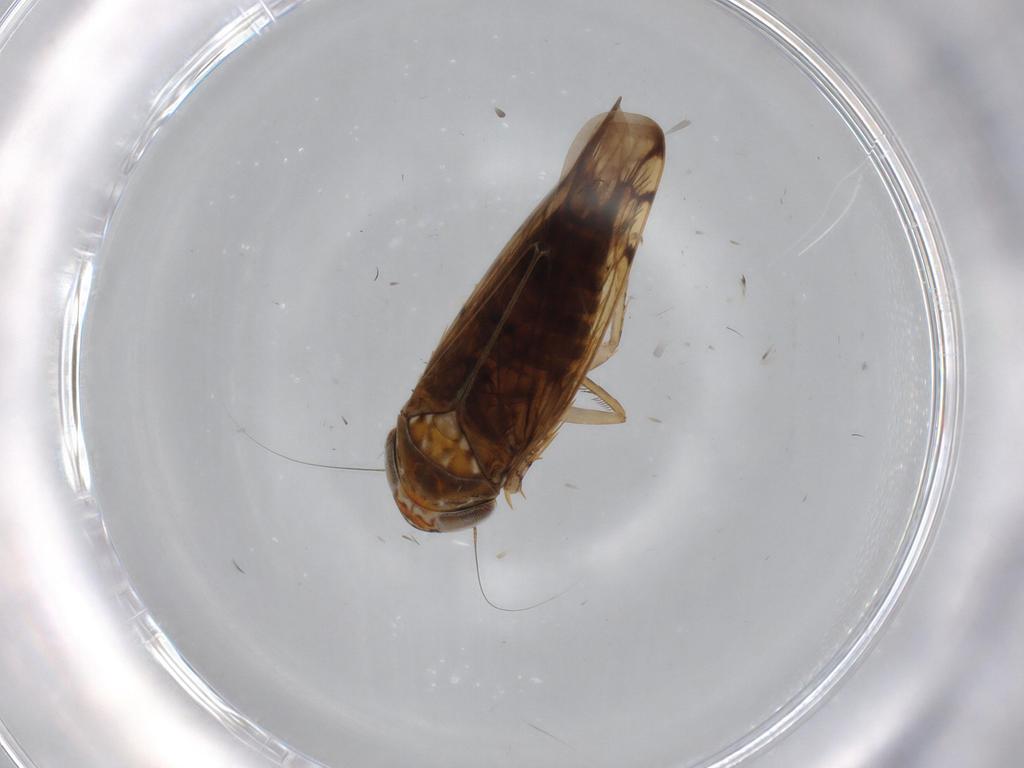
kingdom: Animalia
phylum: Arthropoda
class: Insecta
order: Hemiptera
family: Cicadellidae
